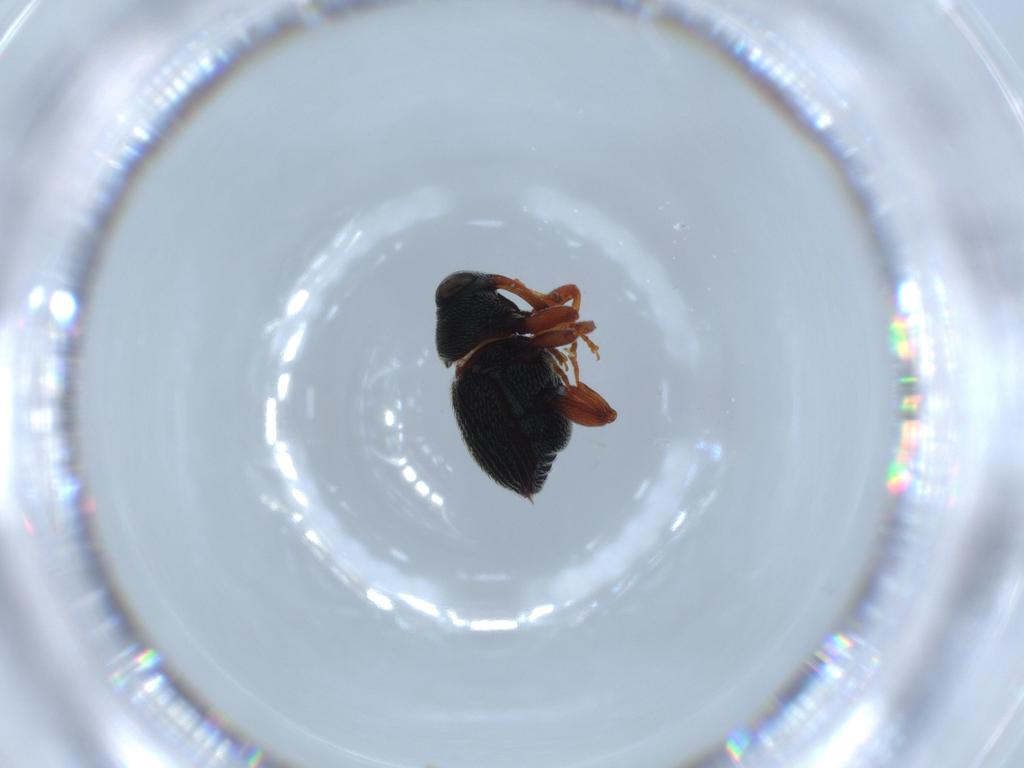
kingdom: Animalia
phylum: Arthropoda
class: Insecta
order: Coleoptera
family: Curculionidae
